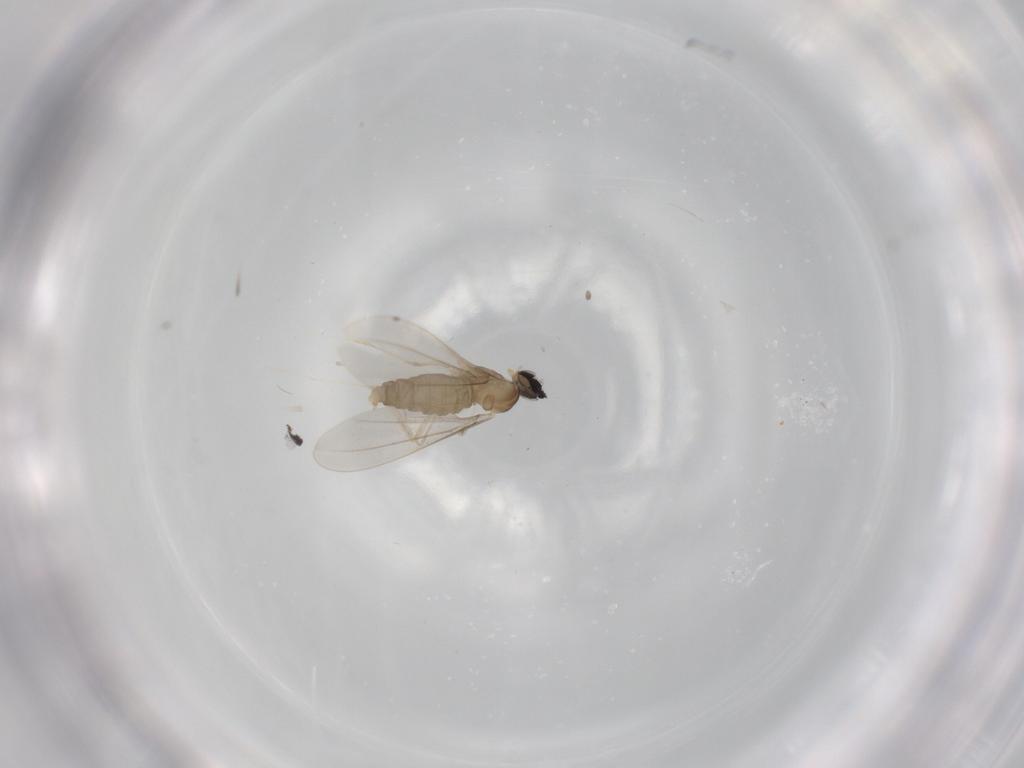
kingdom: Animalia
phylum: Arthropoda
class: Insecta
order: Diptera
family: Cecidomyiidae
